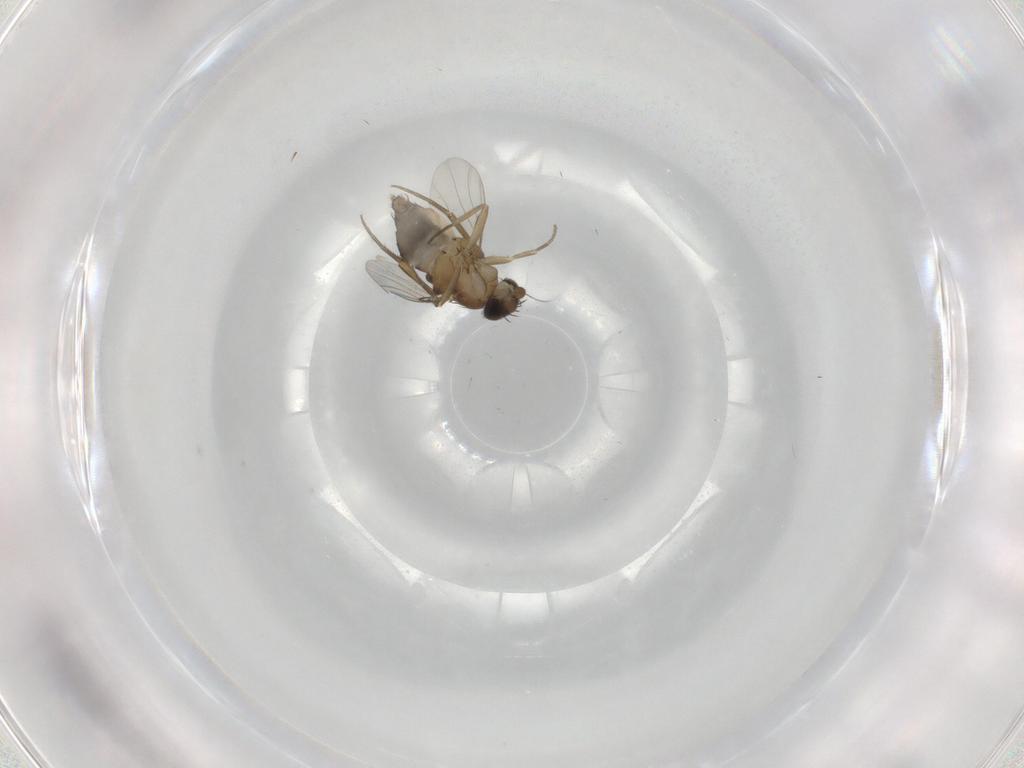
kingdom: Animalia
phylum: Arthropoda
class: Insecta
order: Diptera
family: Phoridae
